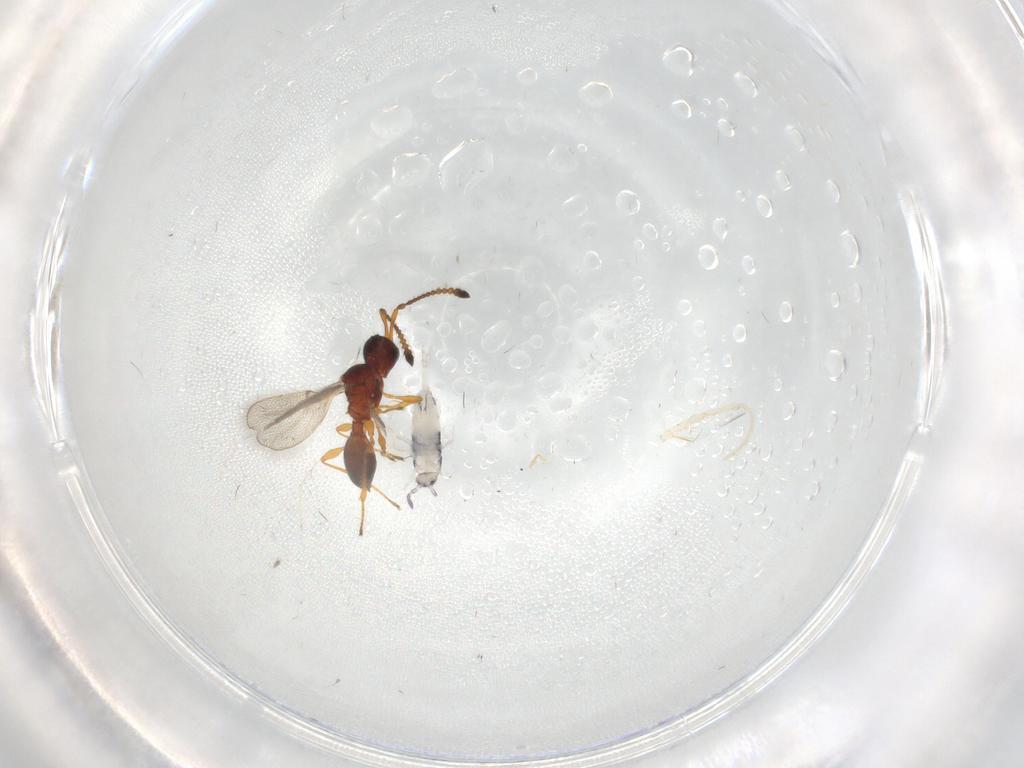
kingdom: Animalia
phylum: Arthropoda
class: Insecta
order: Hymenoptera
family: Diapriidae
